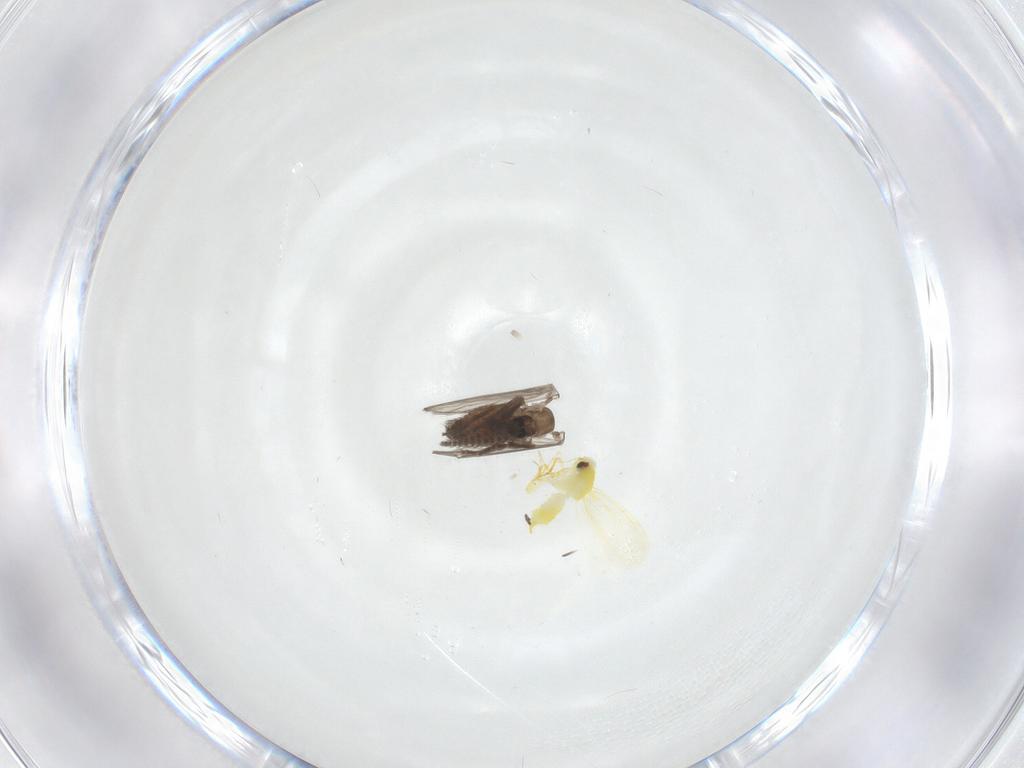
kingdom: Animalia
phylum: Arthropoda
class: Insecta
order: Diptera
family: Psychodidae
